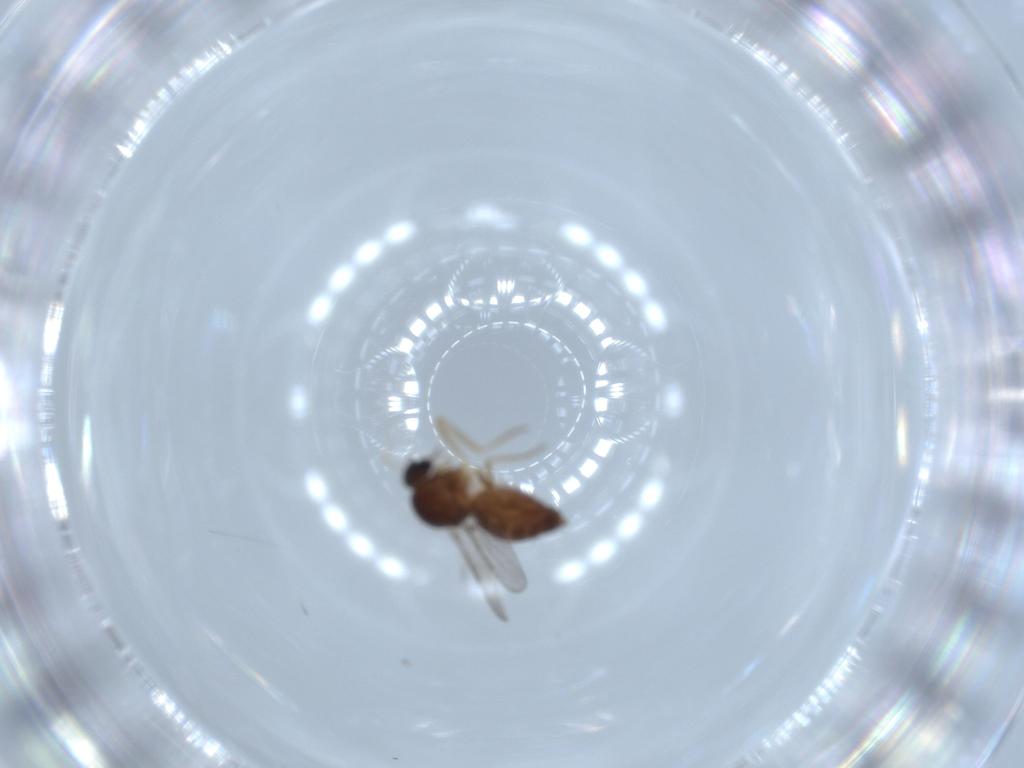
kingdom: Animalia
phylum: Arthropoda
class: Insecta
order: Diptera
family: Ceratopogonidae
